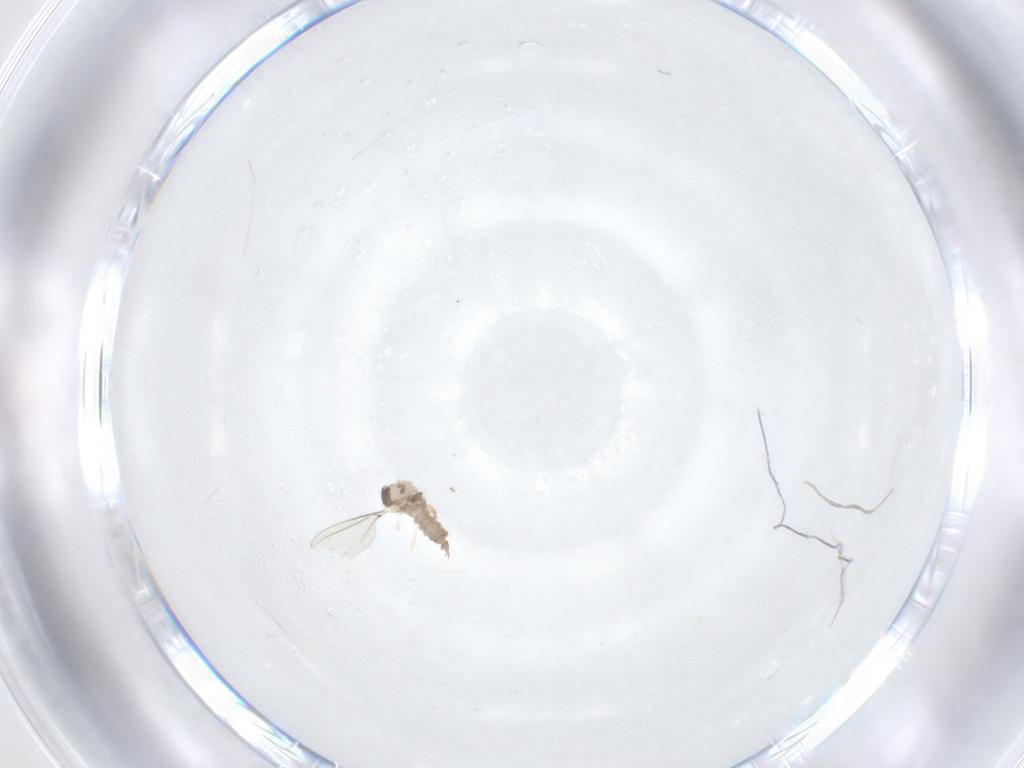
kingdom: Animalia
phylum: Arthropoda
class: Insecta
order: Diptera
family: Cecidomyiidae
